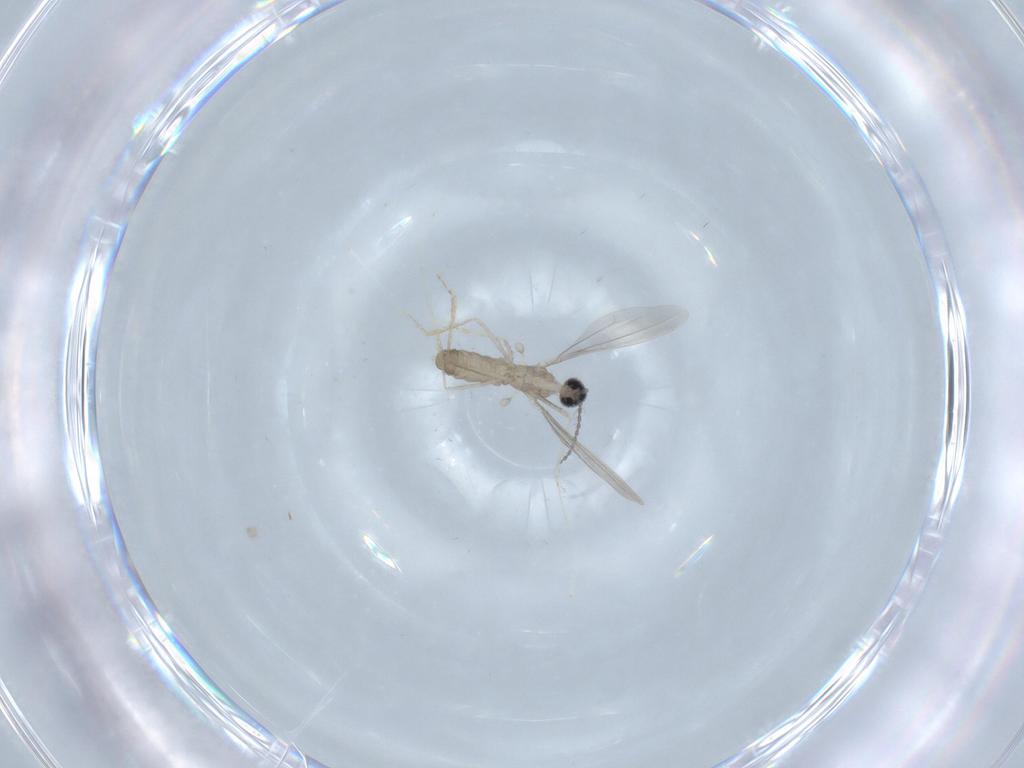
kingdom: Animalia
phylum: Arthropoda
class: Insecta
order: Diptera
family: Cecidomyiidae
